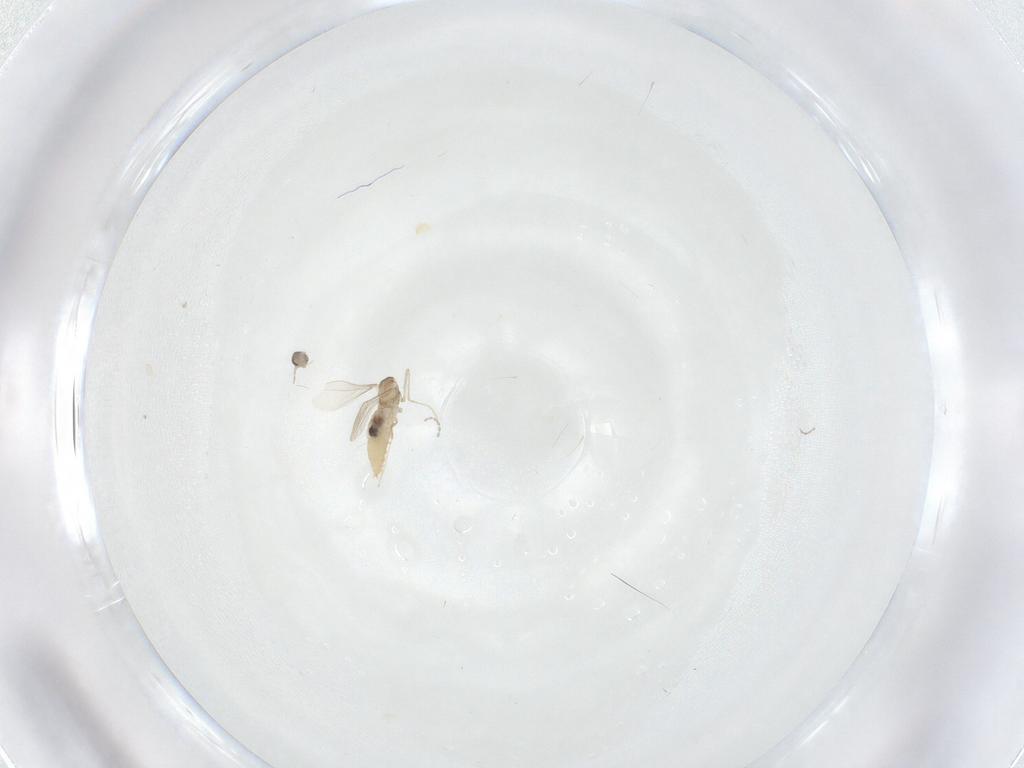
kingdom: Animalia
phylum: Arthropoda
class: Insecta
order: Diptera
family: Cecidomyiidae
